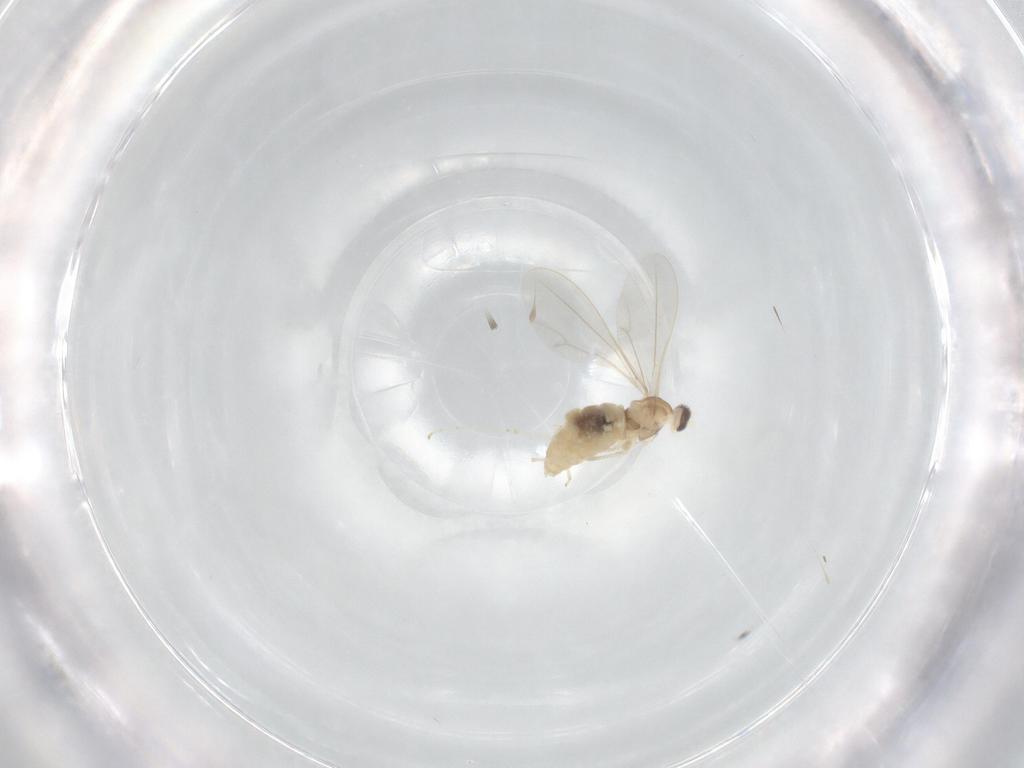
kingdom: Animalia
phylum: Arthropoda
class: Insecta
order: Diptera
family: Cecidomyiidae
